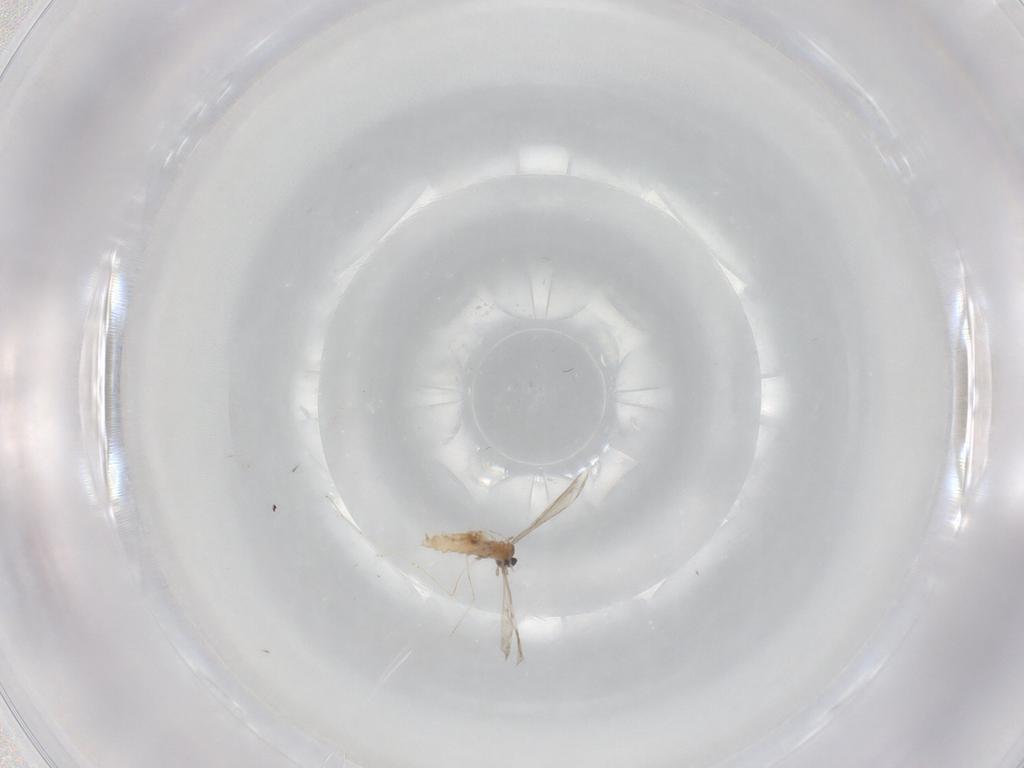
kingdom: Animalia
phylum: Arthropoda
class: Insecta
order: Diptera
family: Cecidomyiidae
